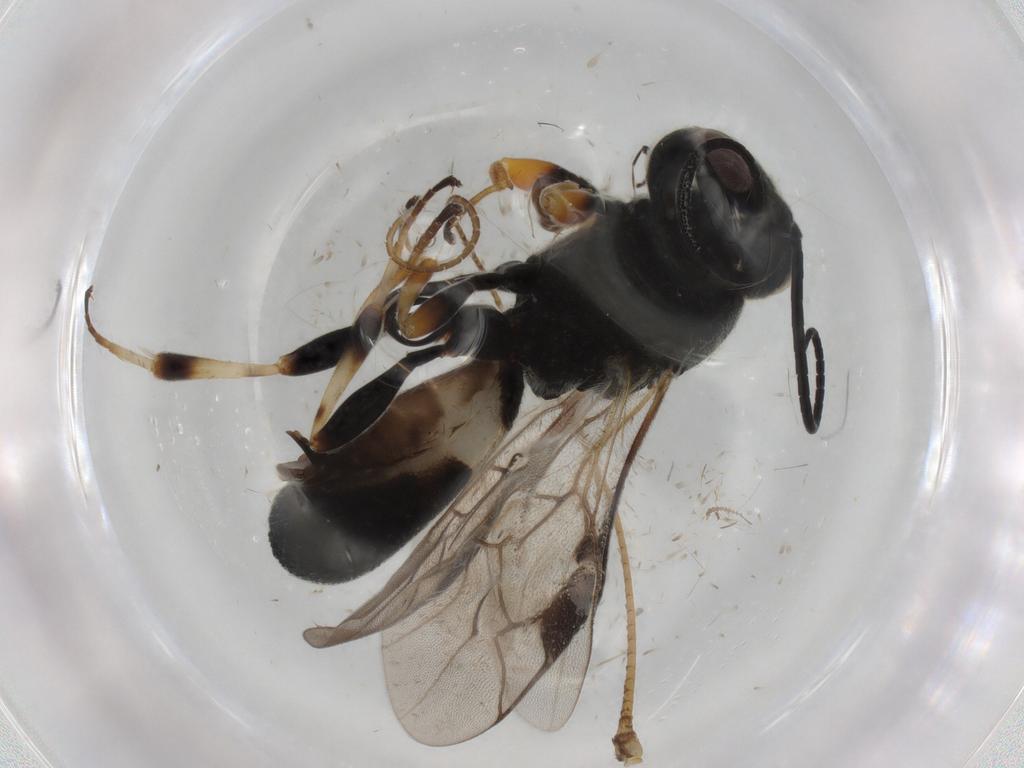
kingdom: Animalia
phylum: Arthropoda
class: Insecta
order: Hymenoptera
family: Braconidae
